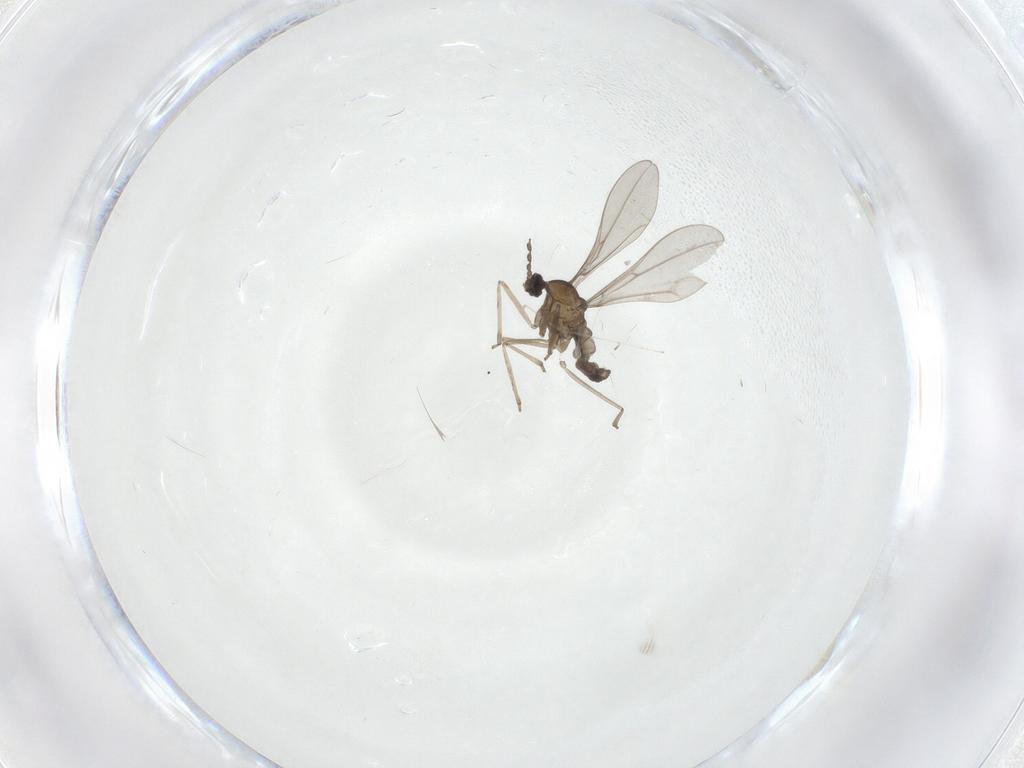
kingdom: Animalia
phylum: Arthropoda
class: Insecta
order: Diptera
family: Cecidomyiidae
